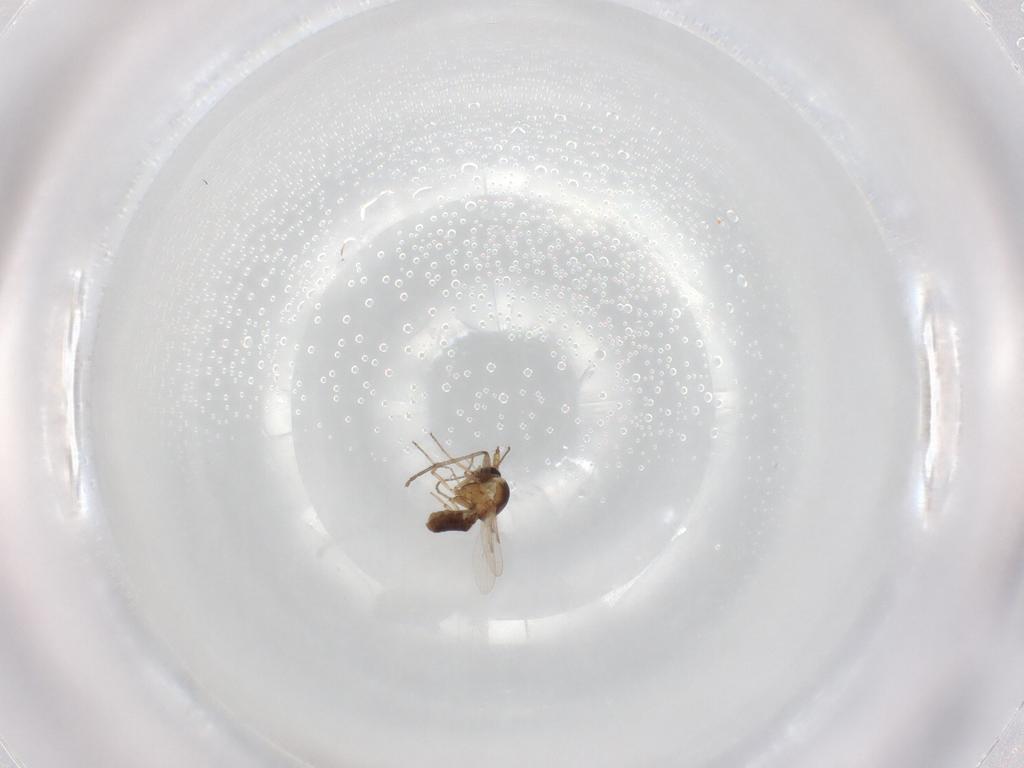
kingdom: Animalia
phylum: Arthropoda
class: Insecta
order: Diptera
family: Ceratopogonidae
